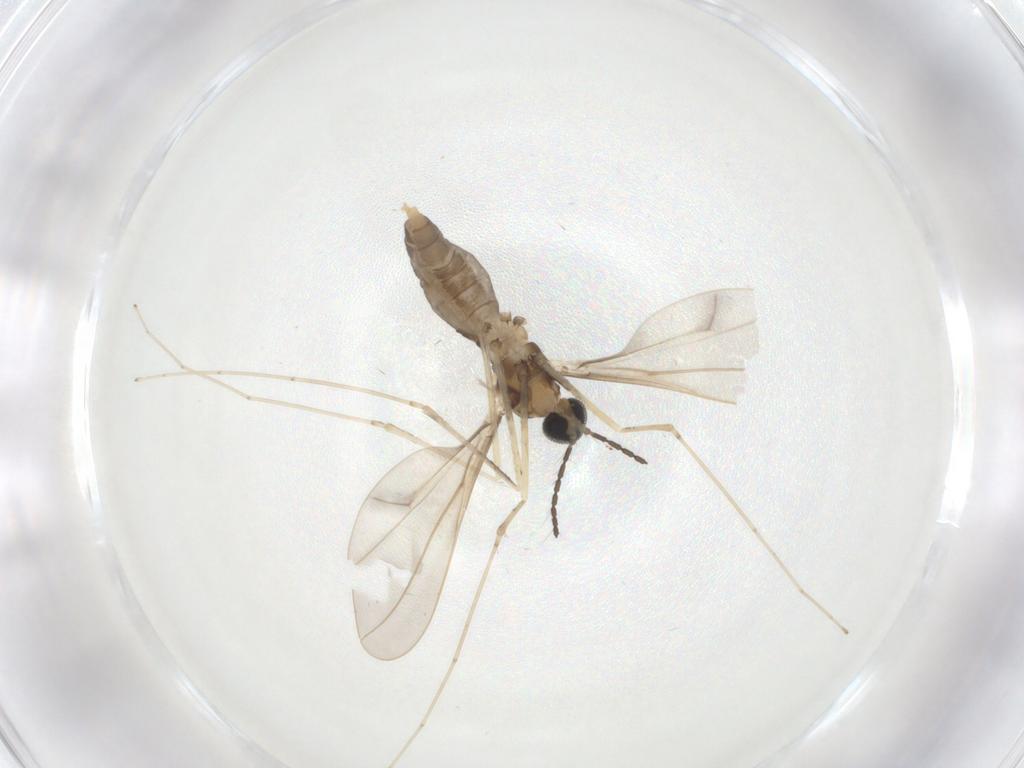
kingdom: Animalia
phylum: Arthropoda
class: Insecta
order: Diptera
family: Cecidomyiidae
